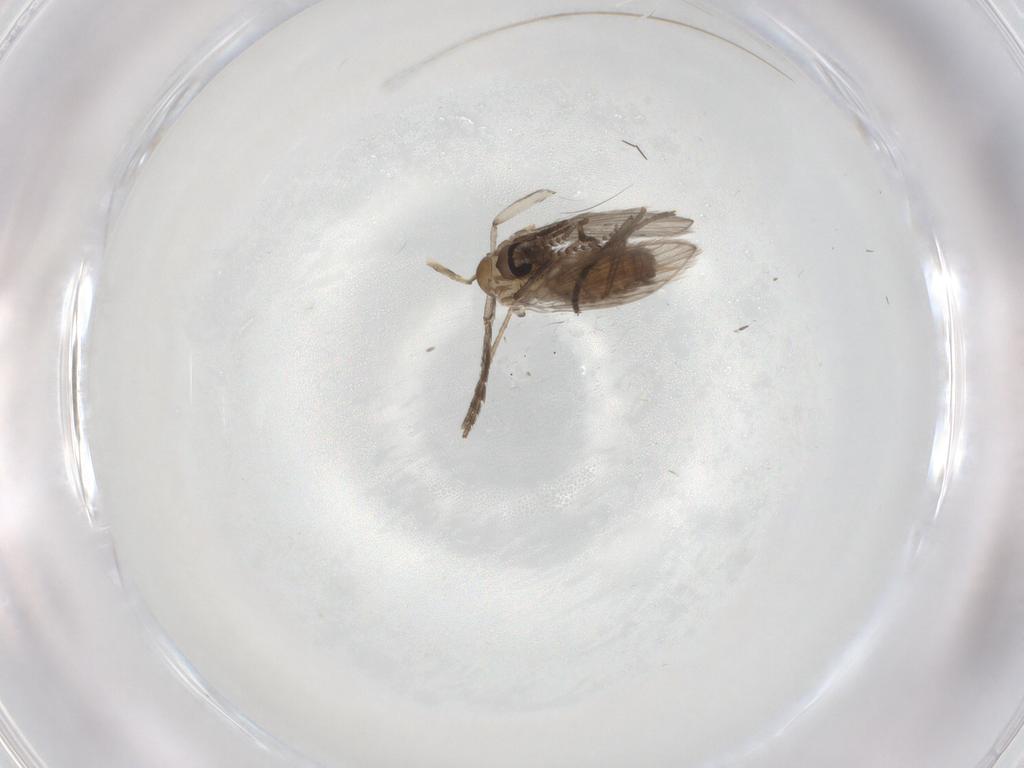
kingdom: Animalia
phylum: Arthropoda
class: Insecta
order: Diptera
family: Psychodidae
